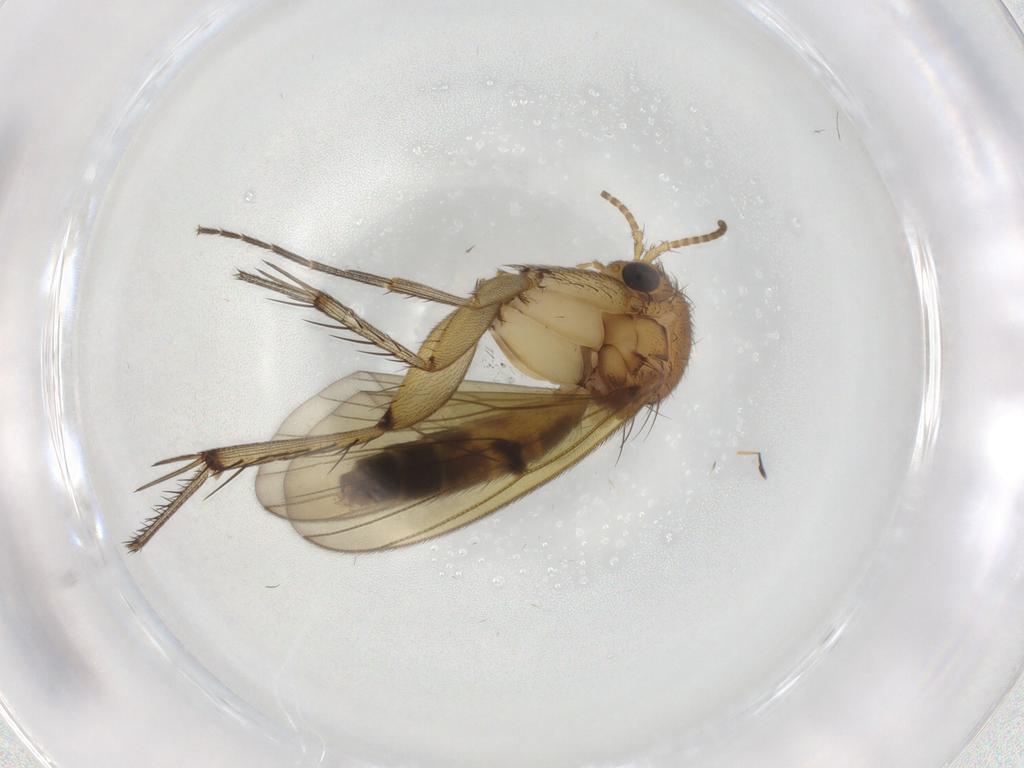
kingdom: Animalia
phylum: Arthropoda
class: Insecta
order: Diptera
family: Mycetophilidae
